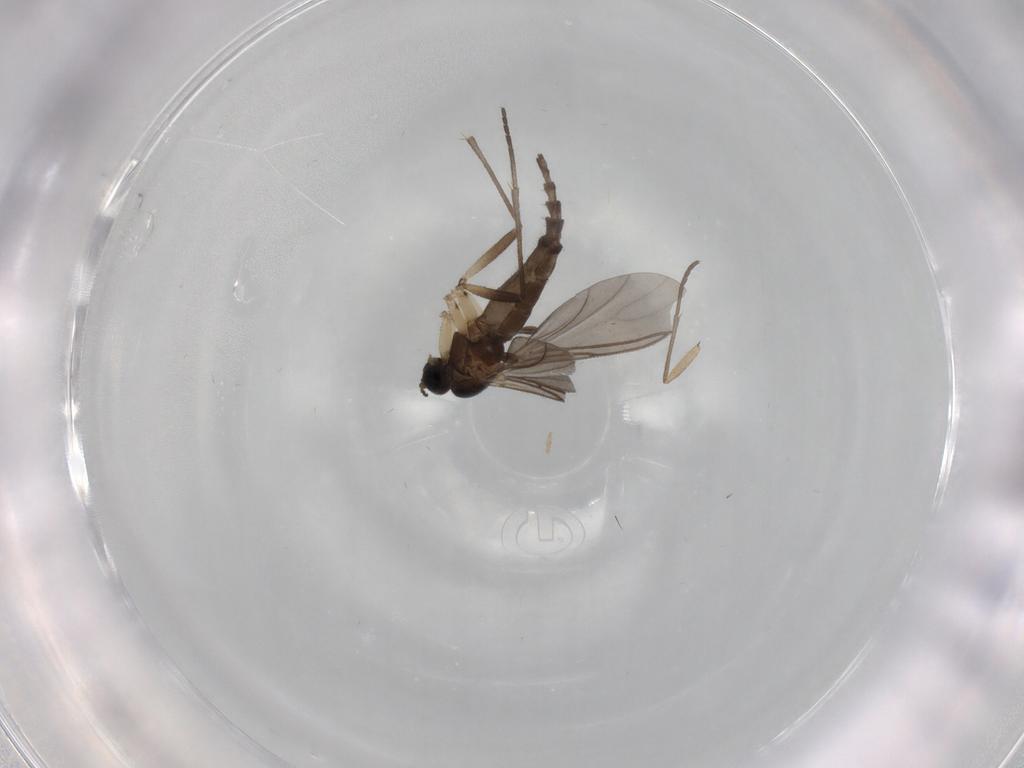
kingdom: Animalia
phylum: Arthropoda
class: Insecta
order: Diptera
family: Sciaridae
